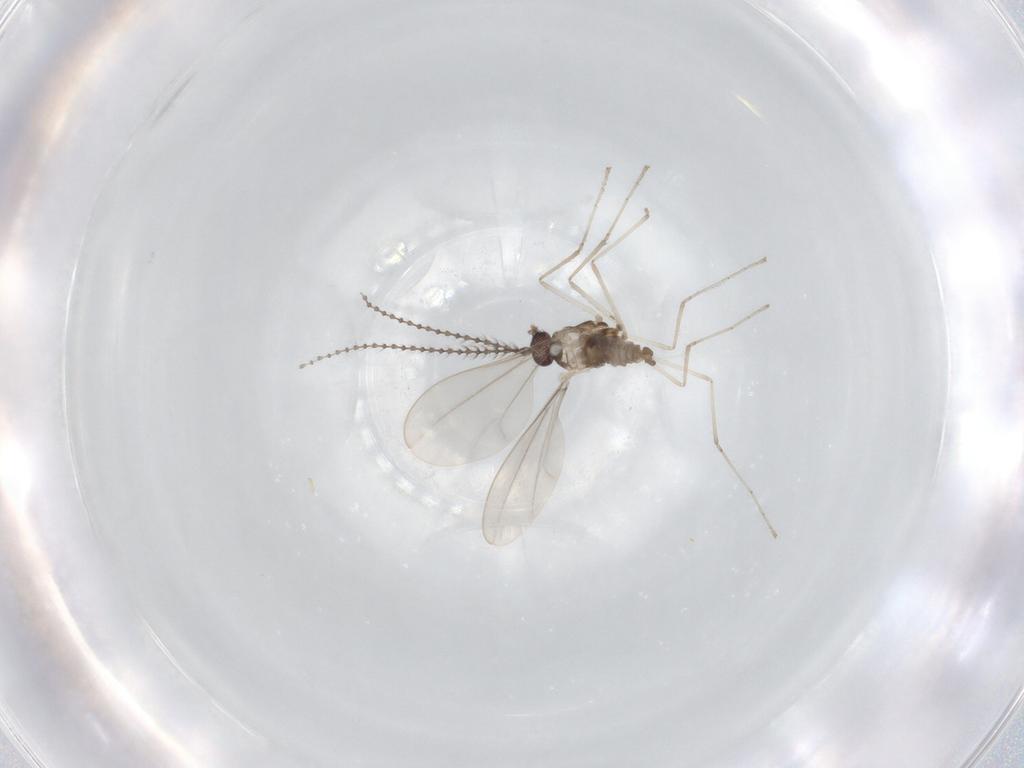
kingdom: Animalia
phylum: Arthropoda
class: Insecta
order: Diptera
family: Cecidomyiidae
